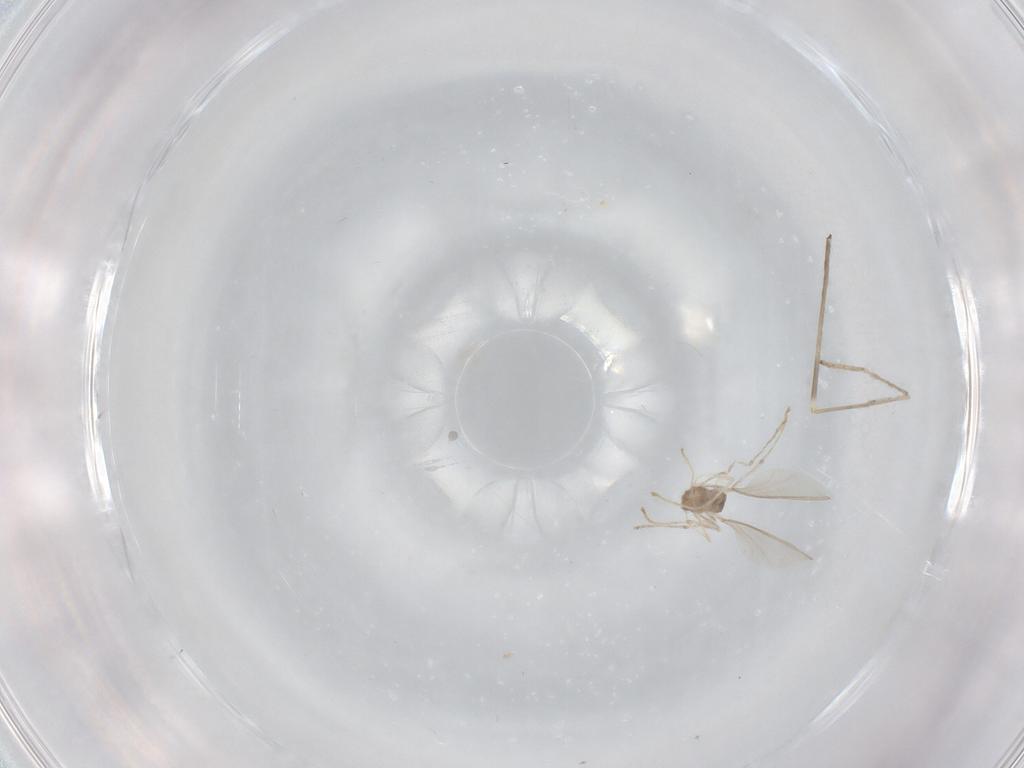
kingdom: Animalia
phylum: Arthropoda
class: Insecta
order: Diptera
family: Cecidomyiidae
